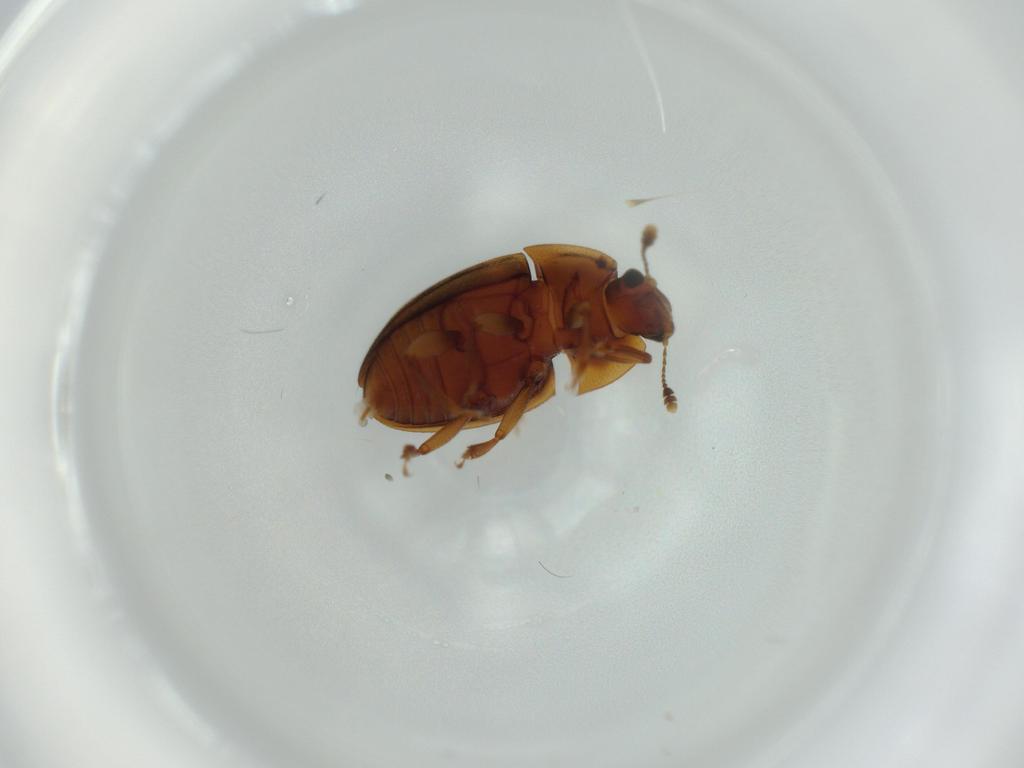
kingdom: Animalia
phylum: Arthropoda
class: Insecta
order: Coleoptera
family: Nitidulidae
